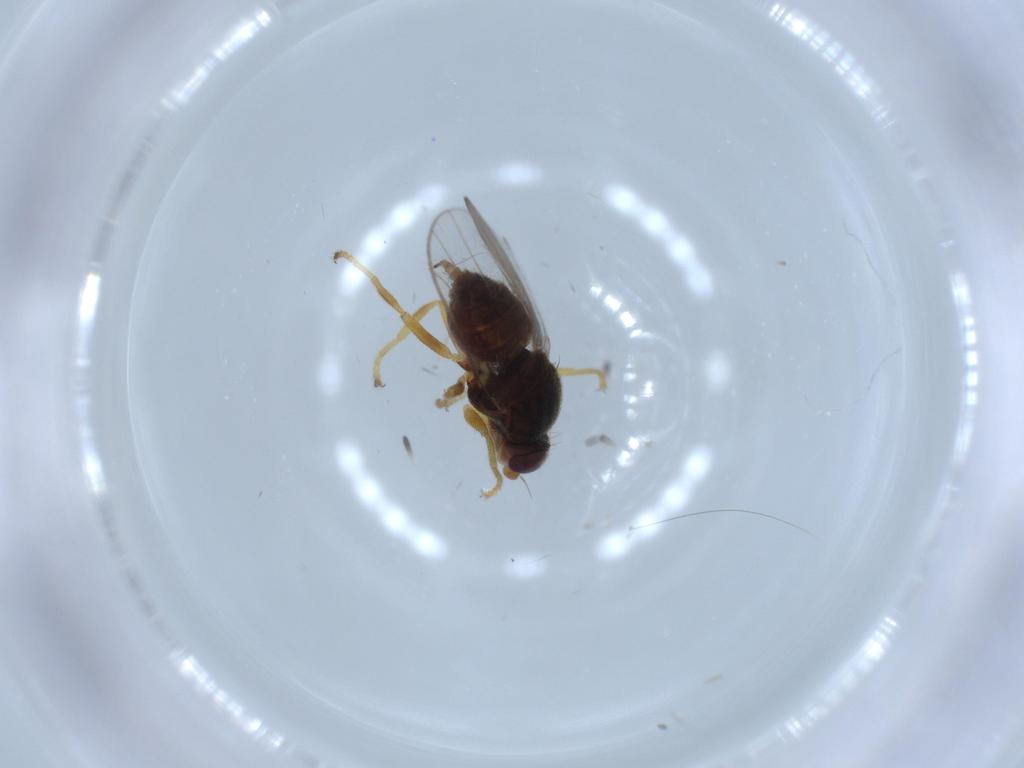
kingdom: Animalia
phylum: Arthropoda
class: Insecta
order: Diptera
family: Chloropidae
